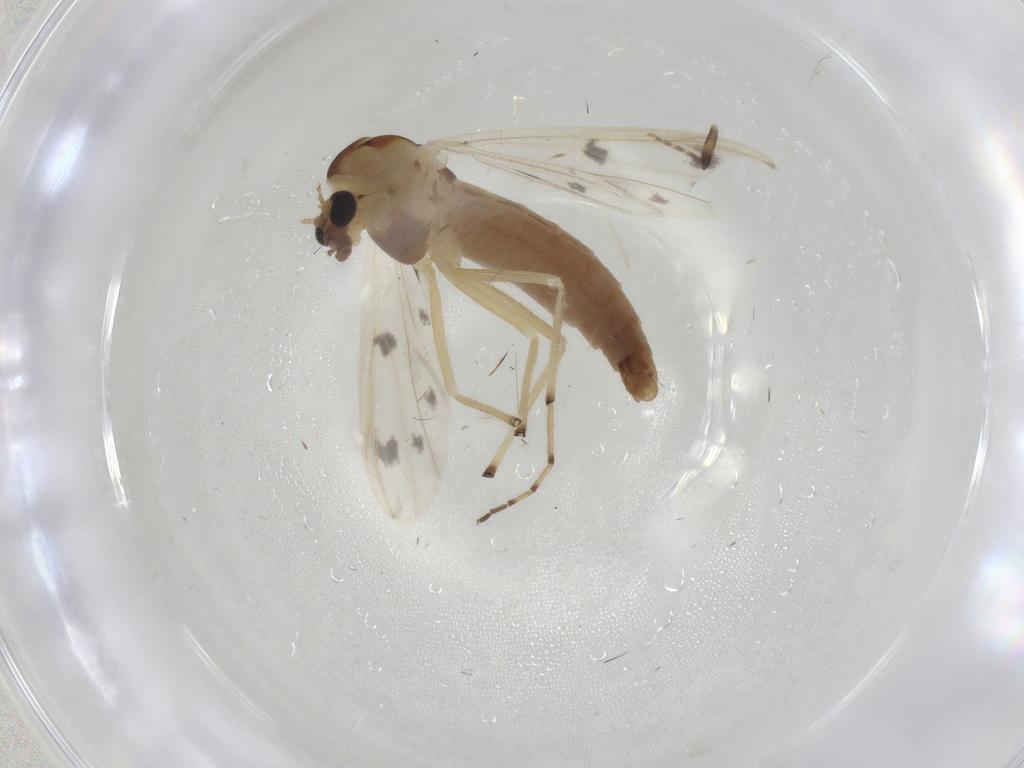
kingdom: Animalia
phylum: Arthropoda
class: Insecta
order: Diptera
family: Chironomidae
